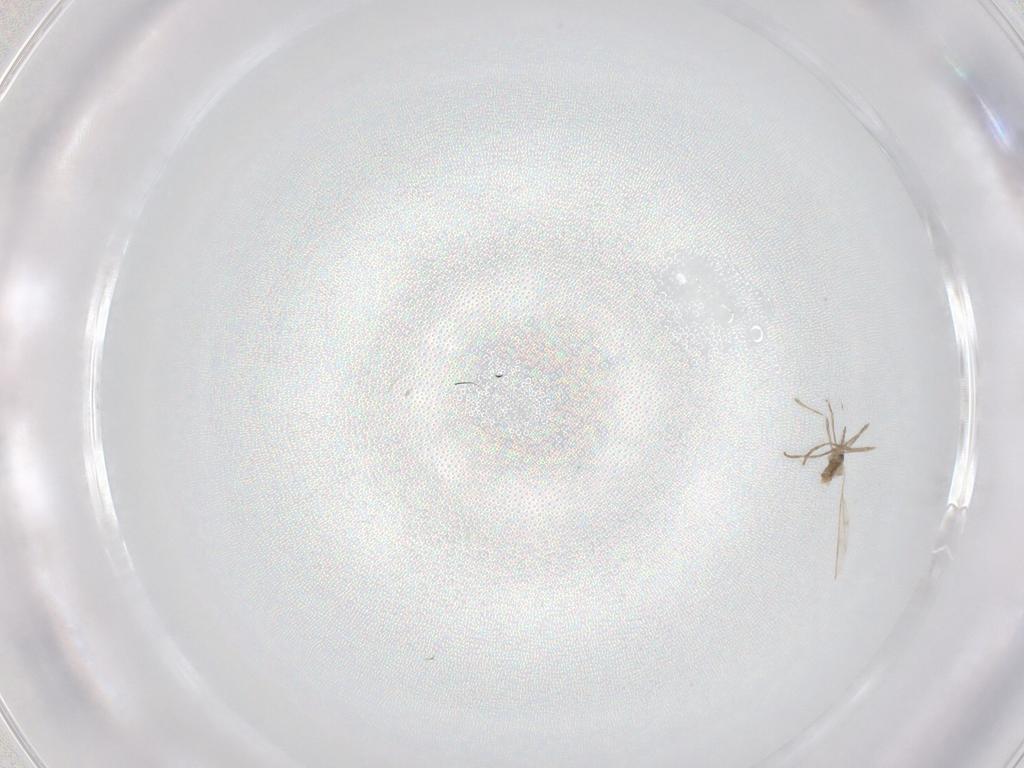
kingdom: Animalia
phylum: Arthropoda
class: Insecta
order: Diptera
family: Cecidomyiidae
